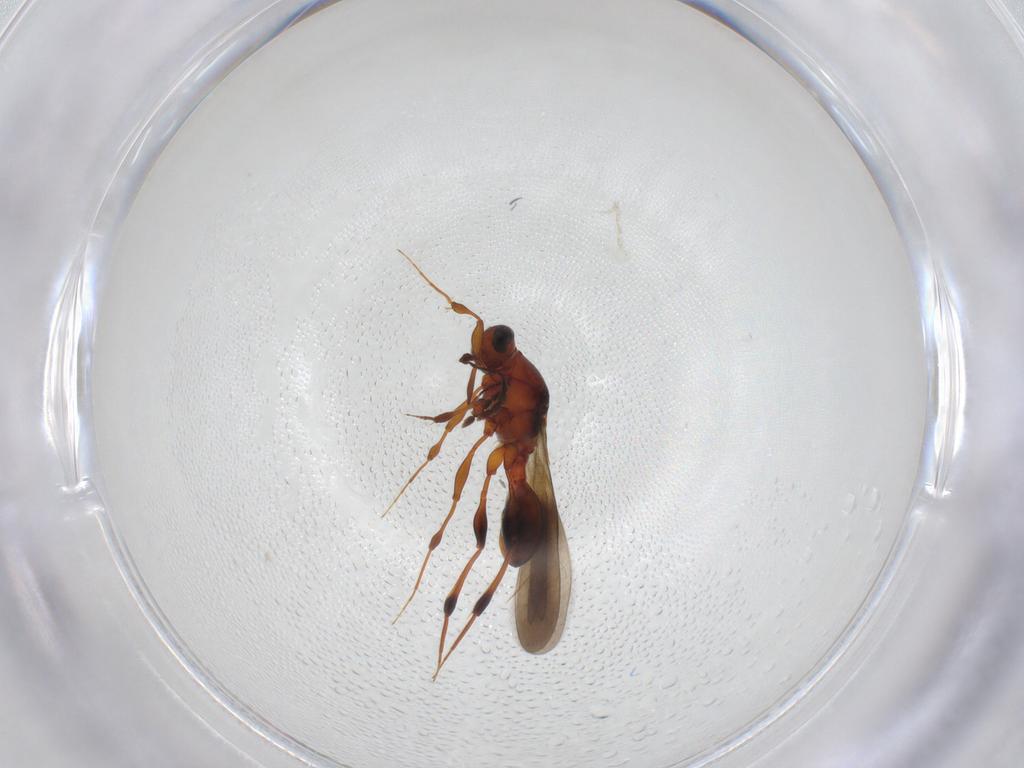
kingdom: Animalia
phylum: Arthropoda
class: Insecta
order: Hymenoptera
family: Platygastridae
